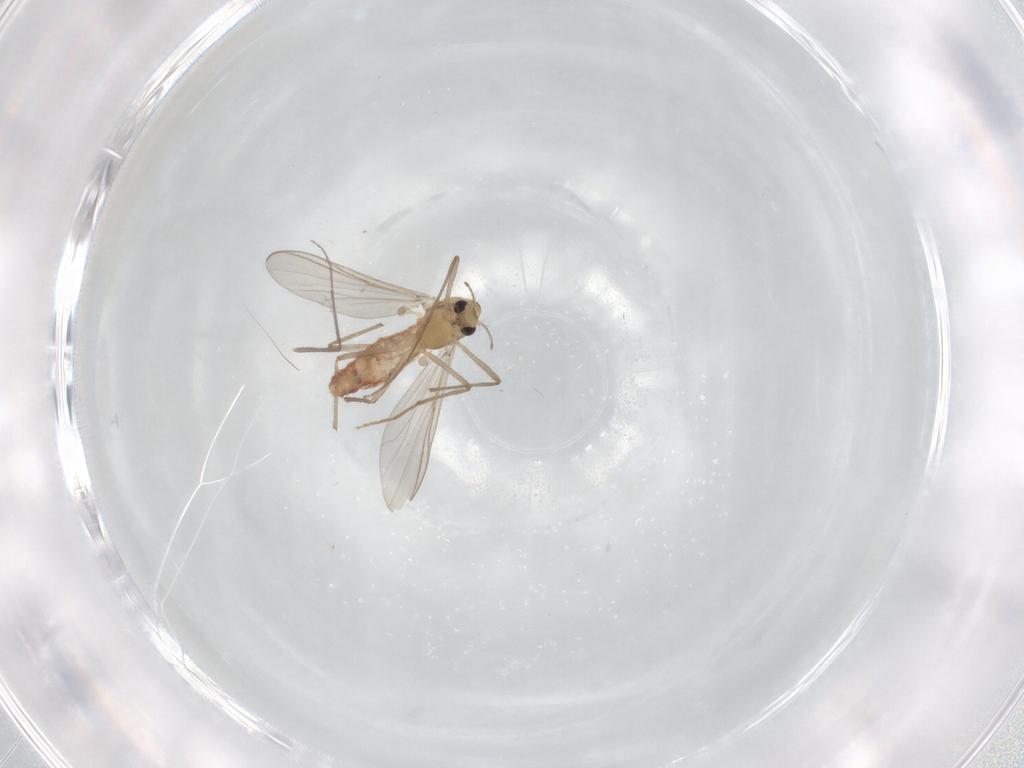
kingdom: Animalia
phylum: Arthropoda
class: Insecta
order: Diptera
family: Chironomidae
